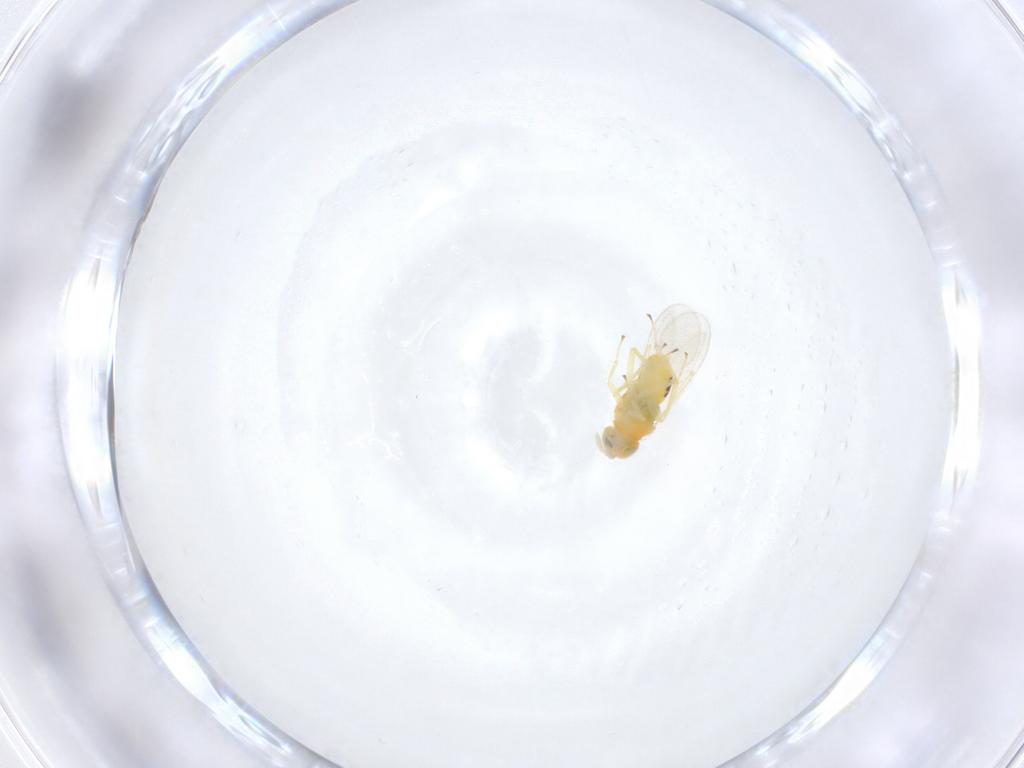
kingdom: Animalia
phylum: Arthropoda
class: Insecta
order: Hymenoptera
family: Aphelinidae
